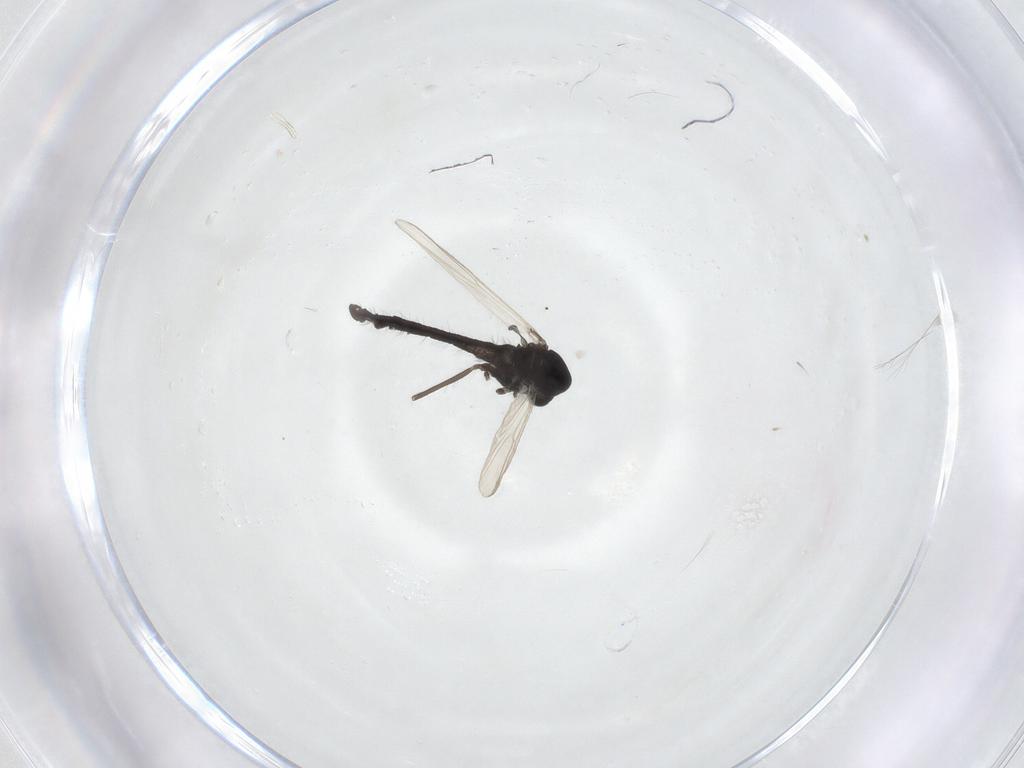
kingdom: Animalia
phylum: Arthropoda
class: Insecta
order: Diptera
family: Chironomidae
